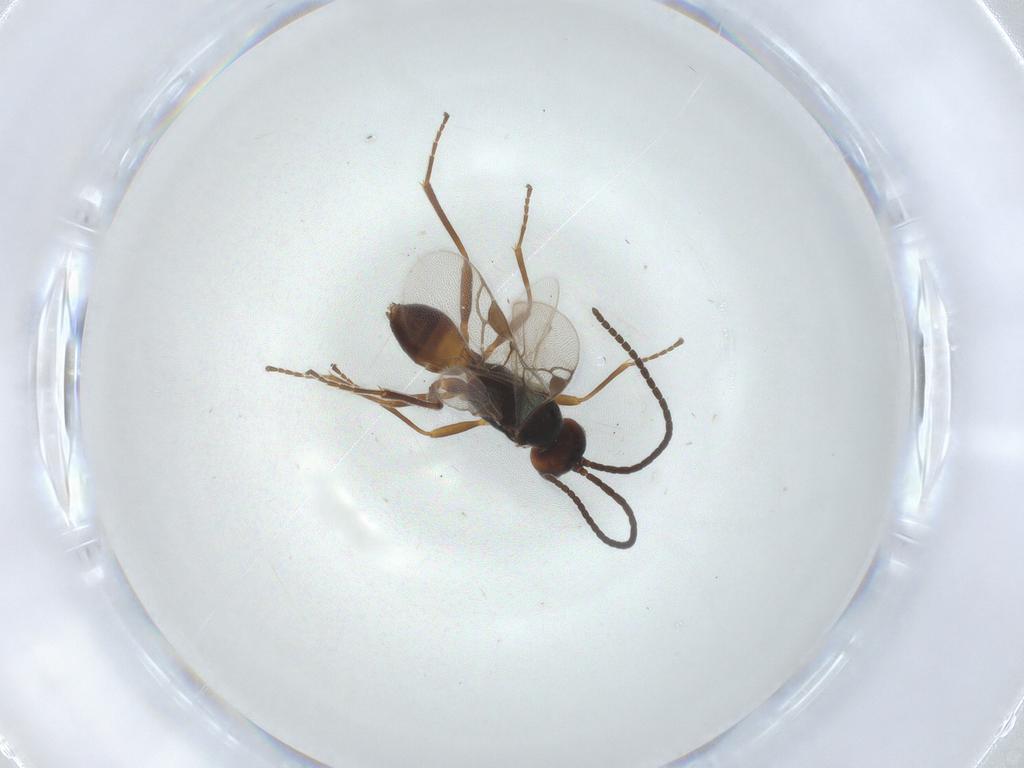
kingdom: Animalia
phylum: Arthropoda
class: Insecta
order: Hymenoptera
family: Braconidae
